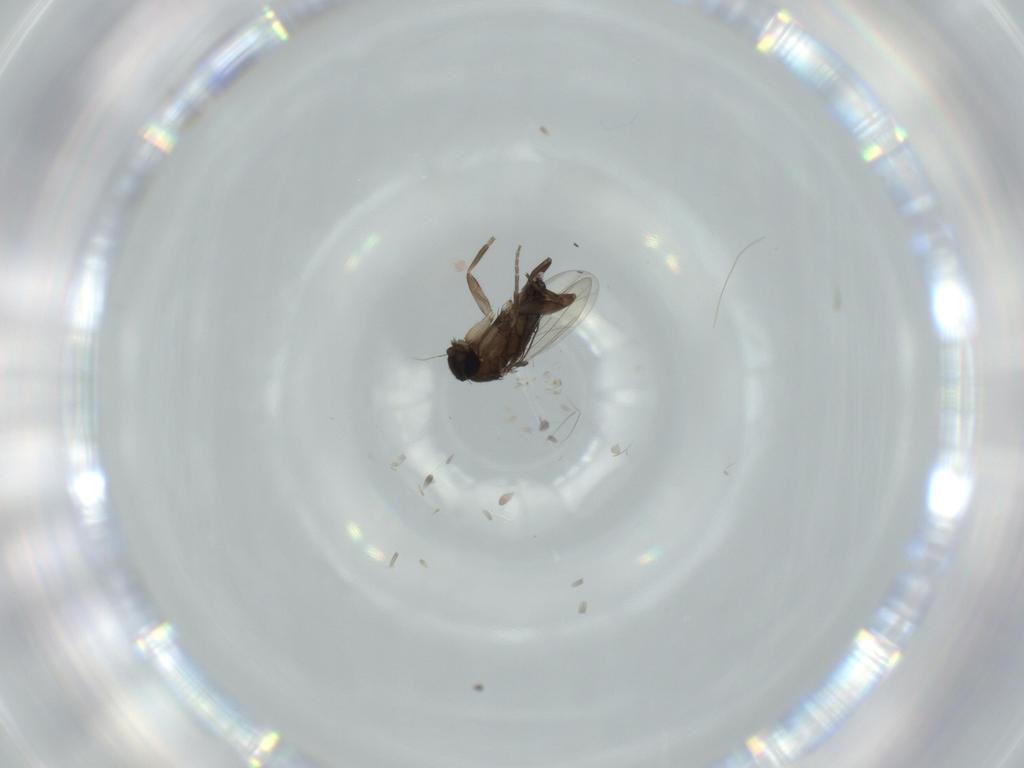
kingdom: Animalia
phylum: Arthropoda
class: Insecta
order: Diptera
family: Phoridae
